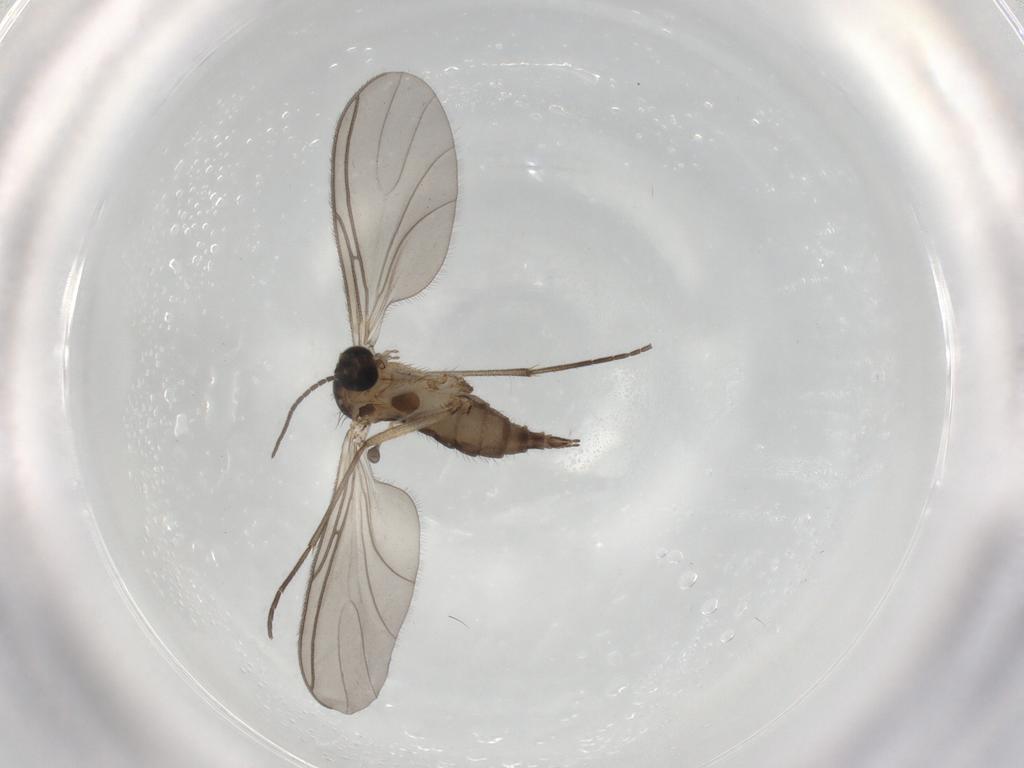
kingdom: Animalia
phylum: Arthropoda
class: Insecta
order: Diptera
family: Sciaridae
